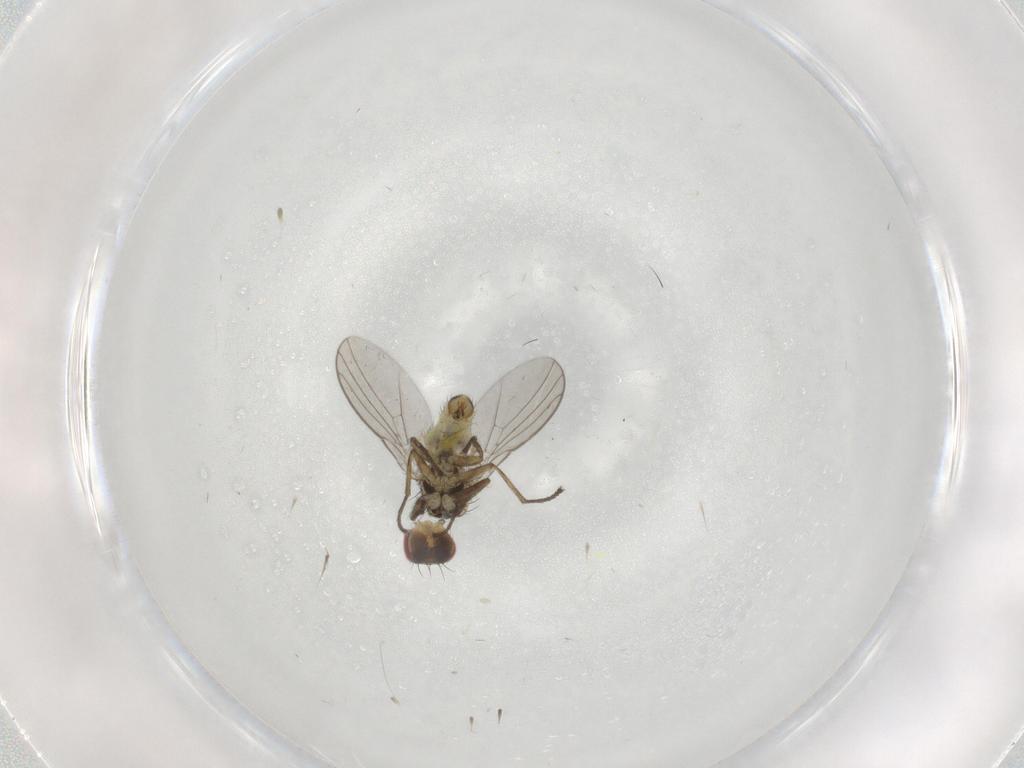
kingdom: Animalia
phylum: Arthropoda
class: Insecta
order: Diptera
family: Agromyzidae
